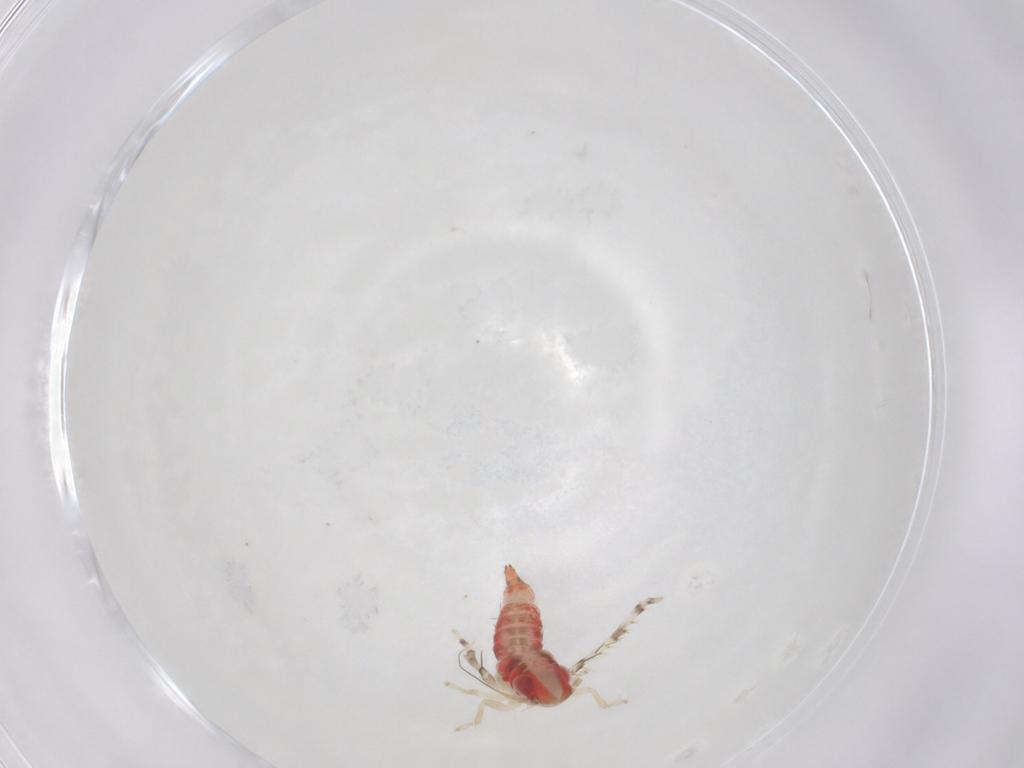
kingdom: Animalia
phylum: Arthropoda
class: Insecta
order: Hemiptera
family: Cicadellidae
